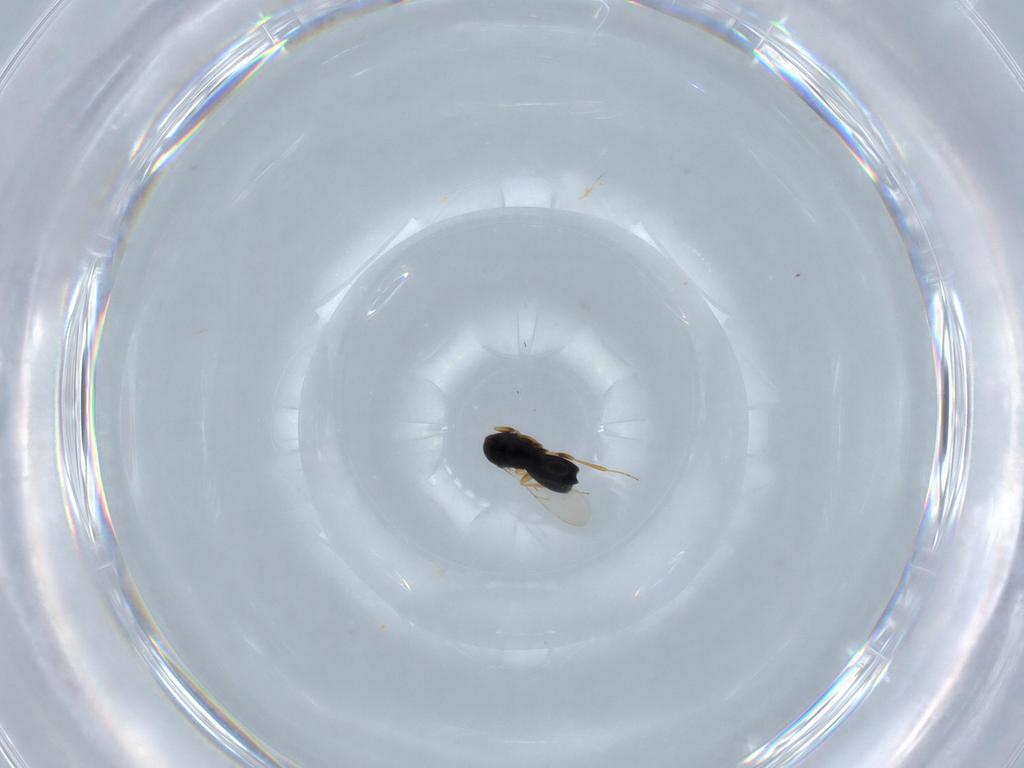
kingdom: Animalia
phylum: Arthropoda
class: Insecta
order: Hymenoptera
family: Scelionidae
